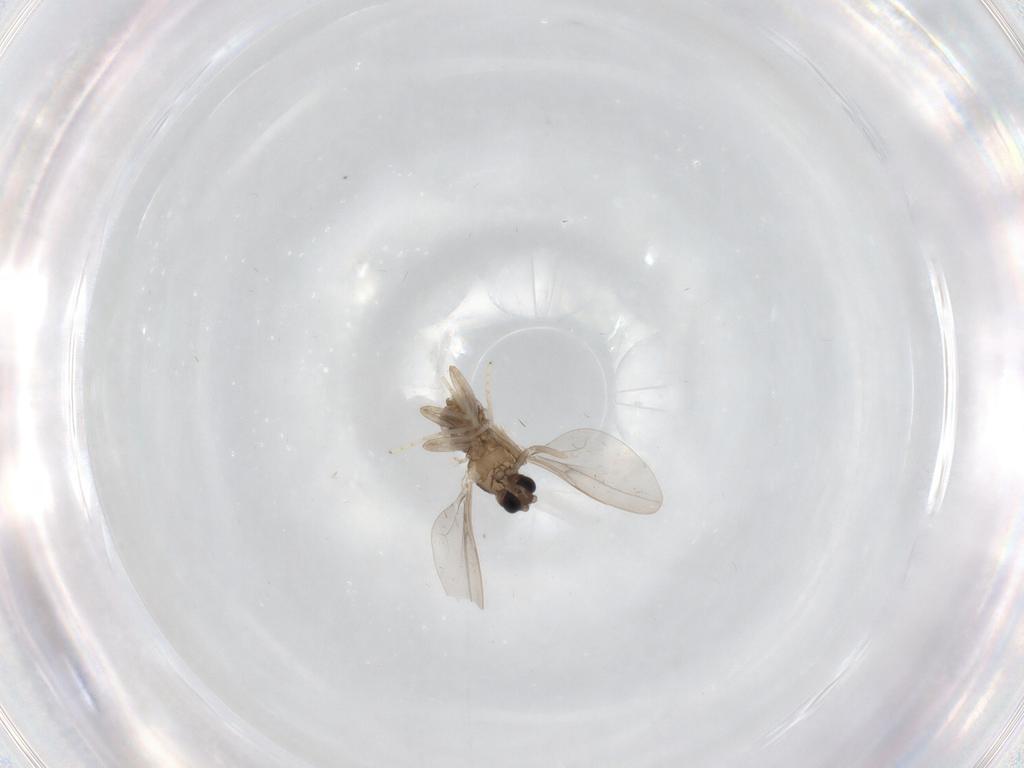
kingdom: Animalia
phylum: Arthropoda
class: Insecta
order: Diptera
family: Cecidomyiidae
